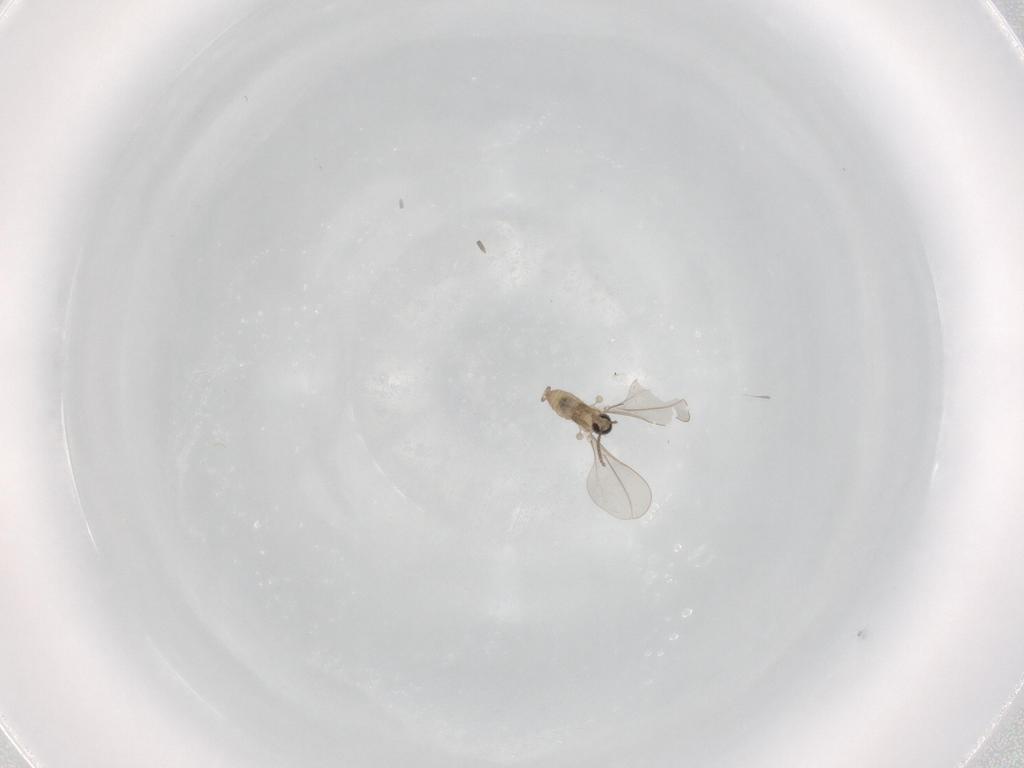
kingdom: Animalia
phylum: Arthropoda
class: Insecta
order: Diptera
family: Cecidomyiidae
